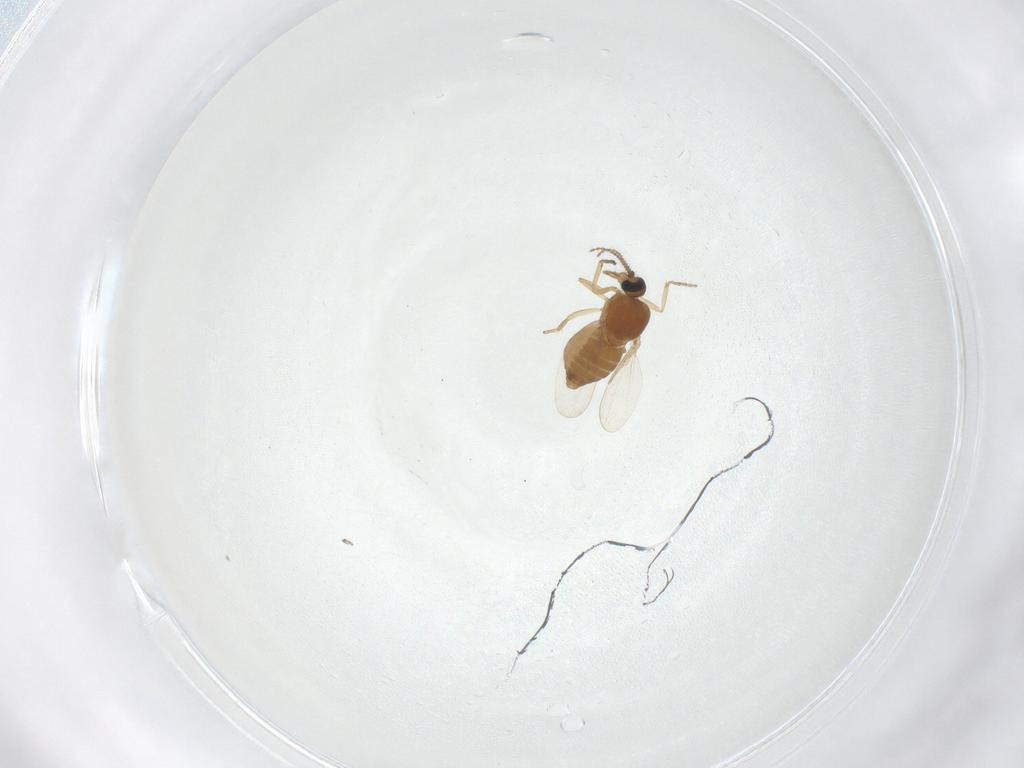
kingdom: Animalia
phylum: Arthropoda
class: Insecta
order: Diptera
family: Ceratopogonidae
